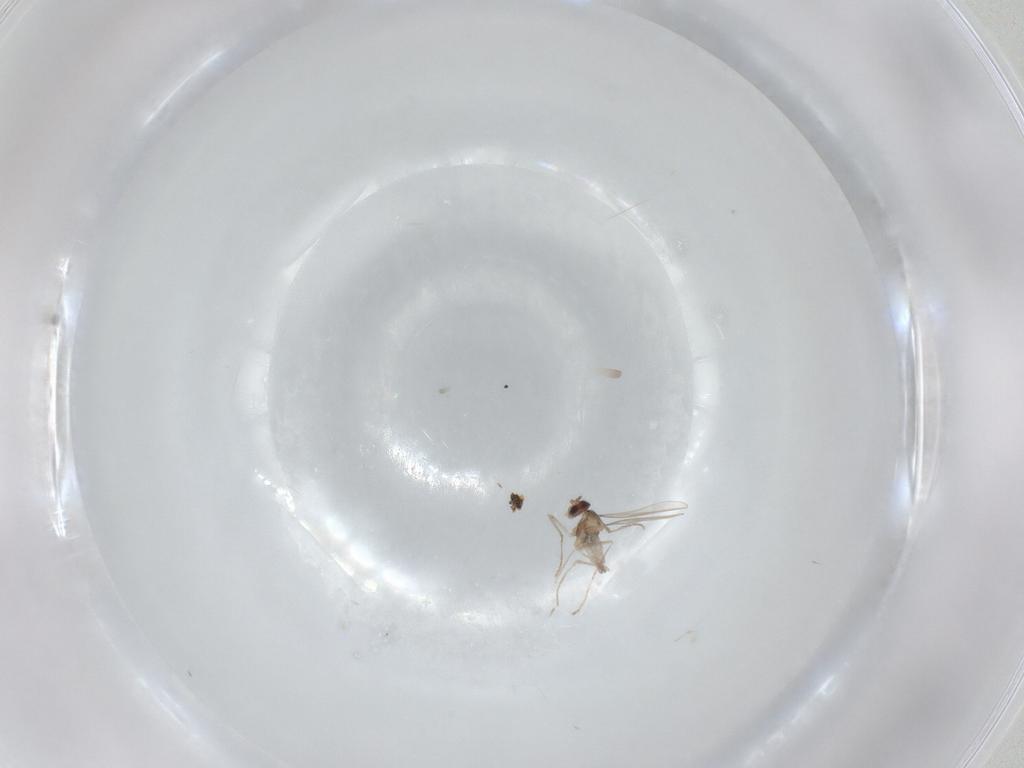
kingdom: Animalia
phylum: Arthropoda
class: Insecta
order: Diptera
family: Cecidomyiidae
